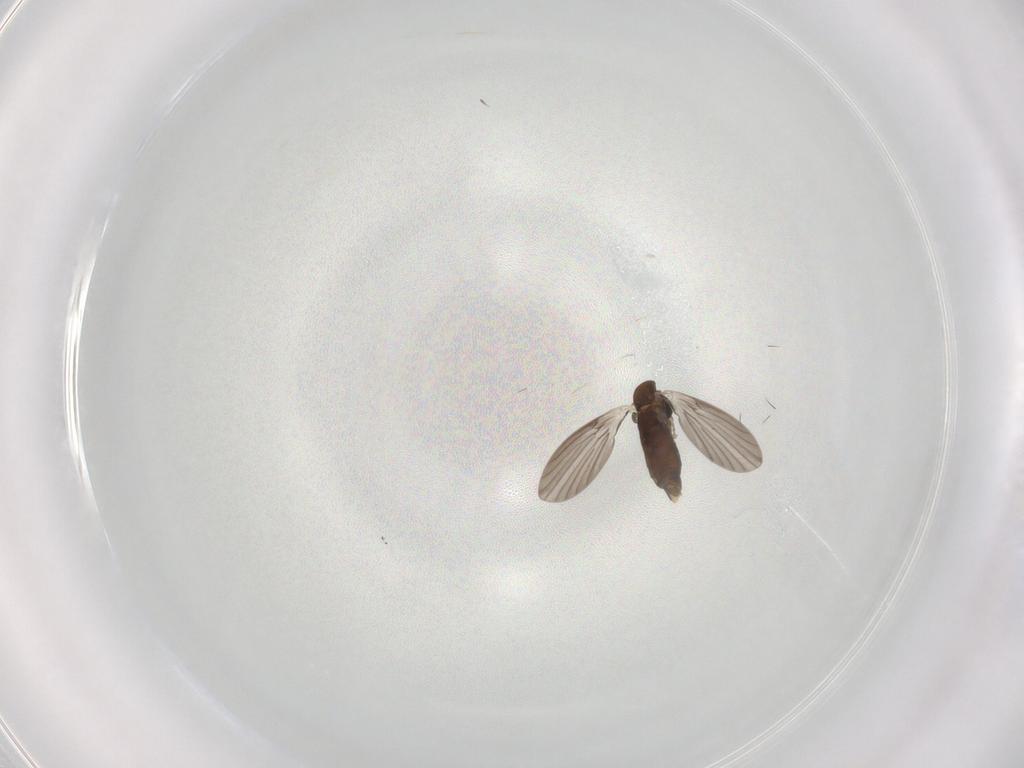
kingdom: Animalia
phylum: Arthropoda
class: Insecta
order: Diptera
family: Tabanidae
